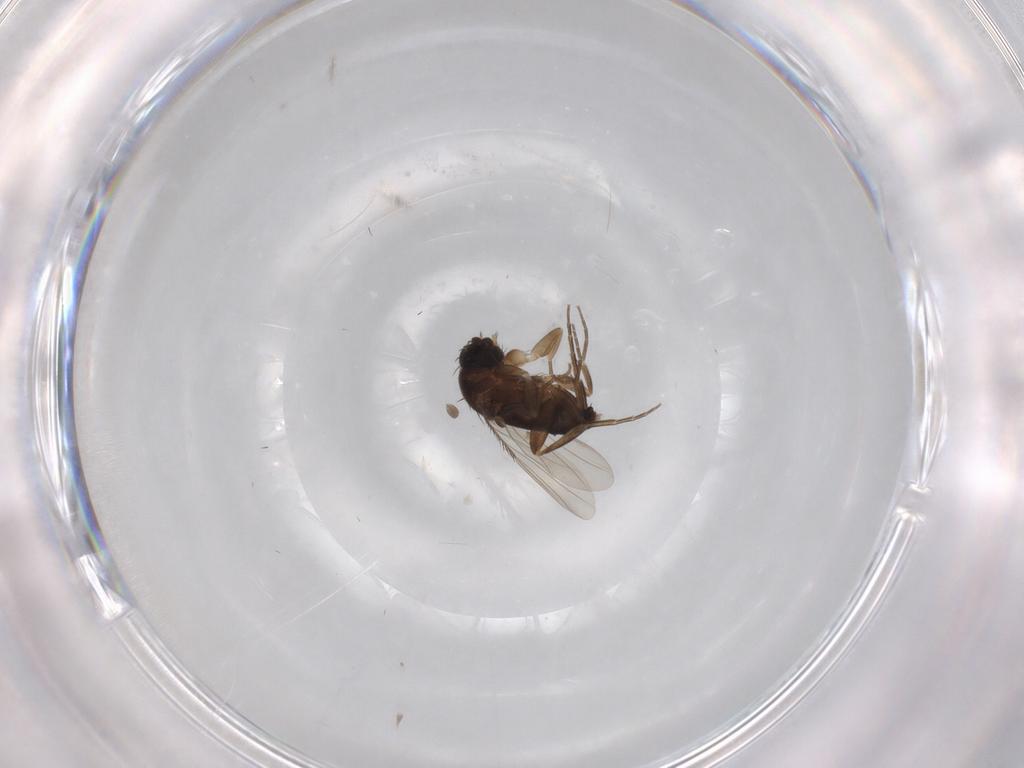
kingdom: Animalia
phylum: Arthropoda
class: Insecta
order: Diptera
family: Phoridae
